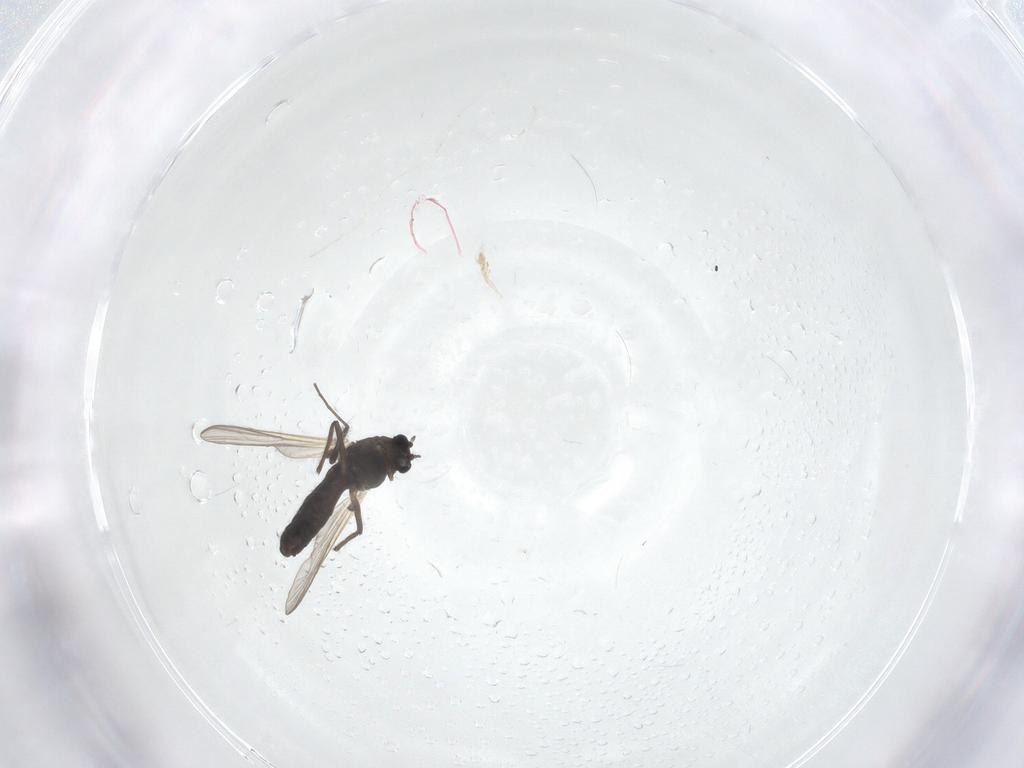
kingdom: Animalia
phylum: Arthropoda
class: Insecta
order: Diptera
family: Chironomidae
